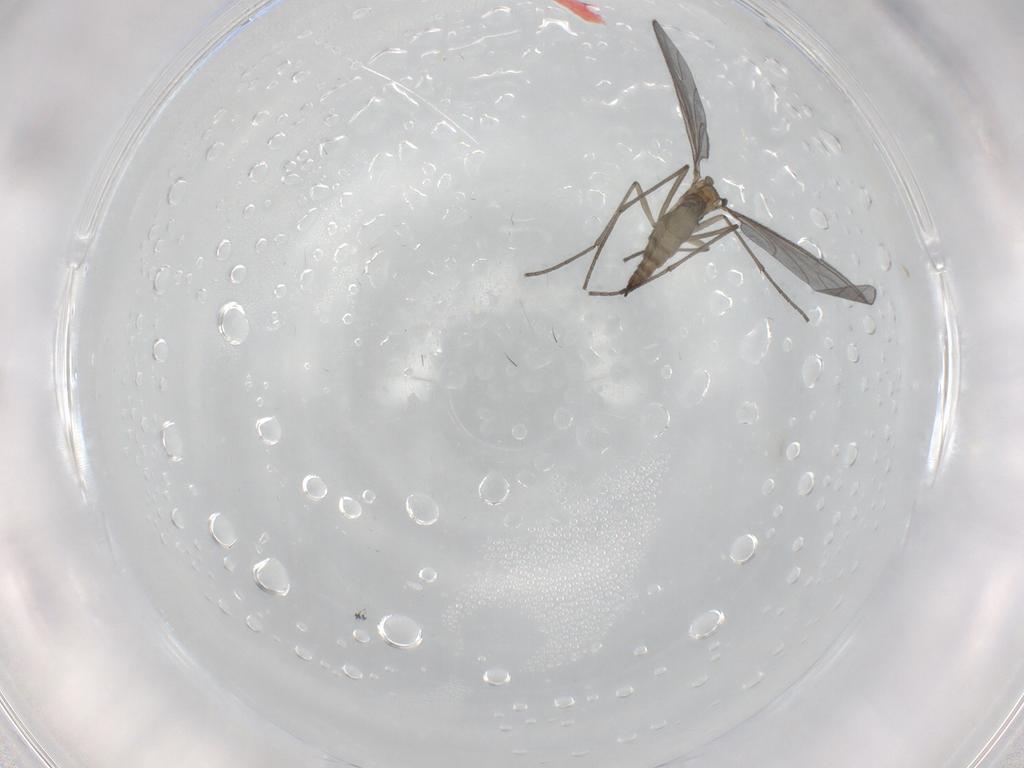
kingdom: Animalia
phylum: Arthropoda
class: Insecta
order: Diptera
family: Sciaridae
